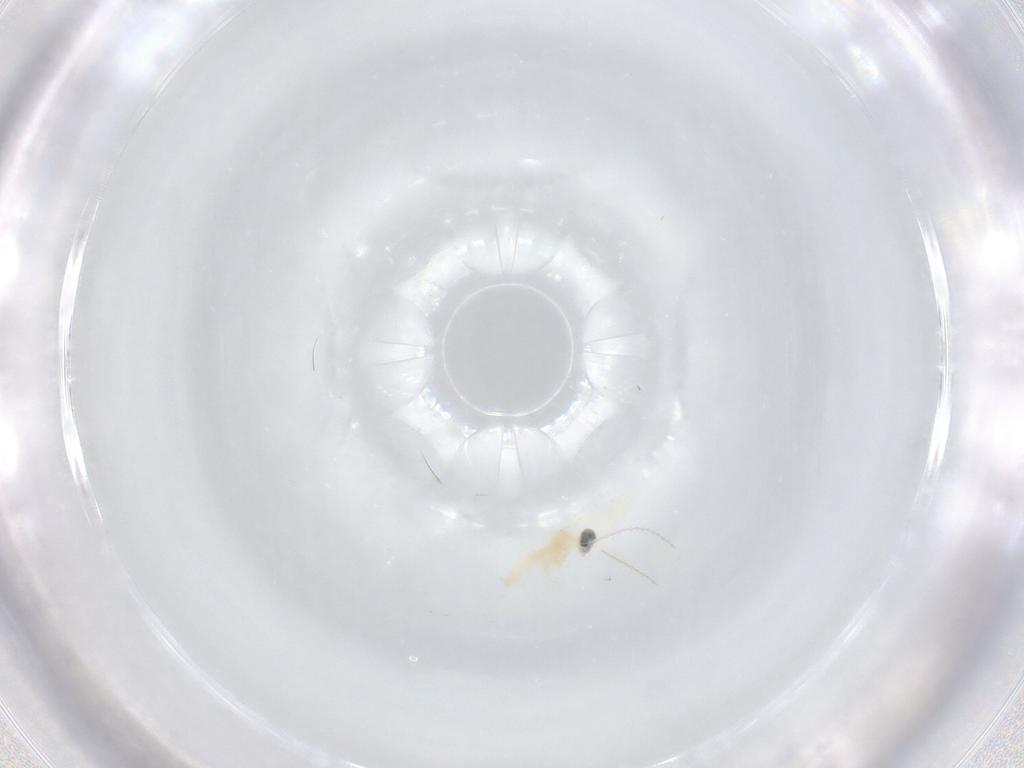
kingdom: Animalia
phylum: Arthropoda
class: Insecta
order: Diptera
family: Cecidomyiidae
